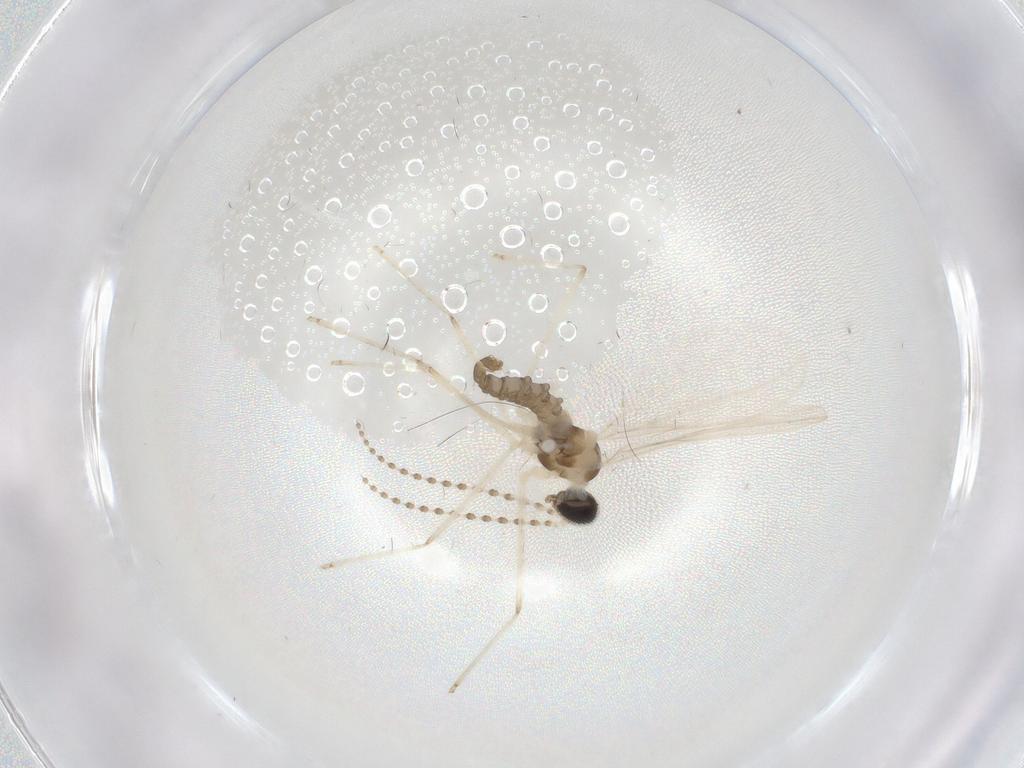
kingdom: Animalia
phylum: Arthropoda
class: Insecta
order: Diptera
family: Sciaridae
